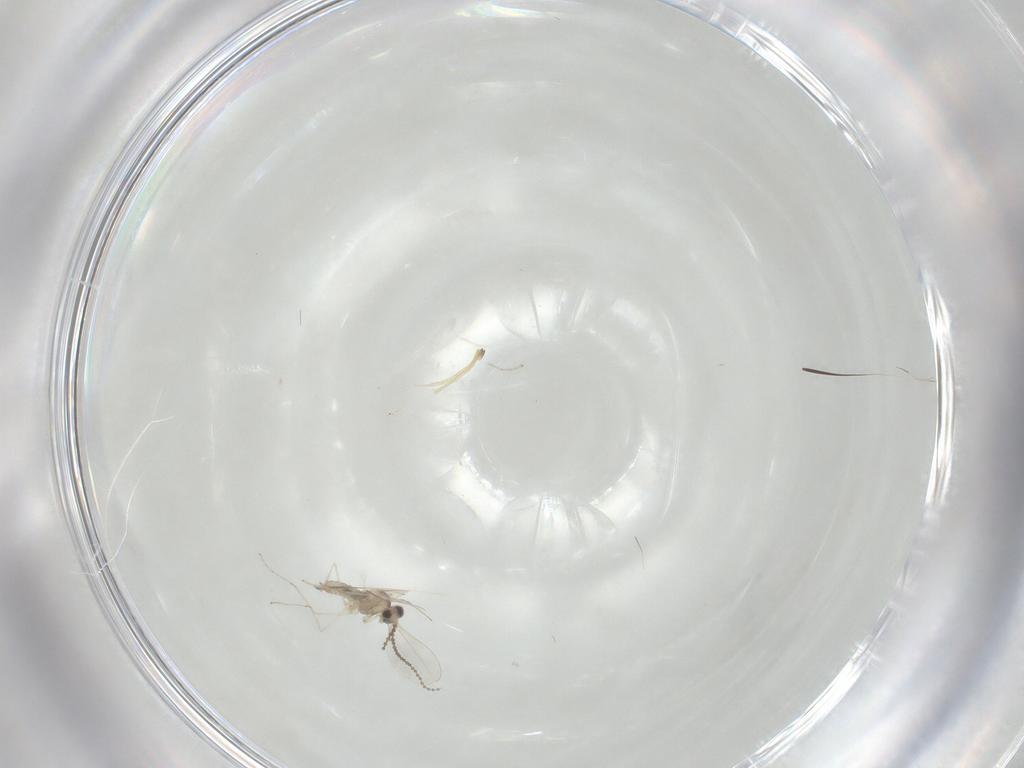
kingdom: Animalia
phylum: Arthropoda
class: Insecta
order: Diptera
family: Cecidomyiidae
